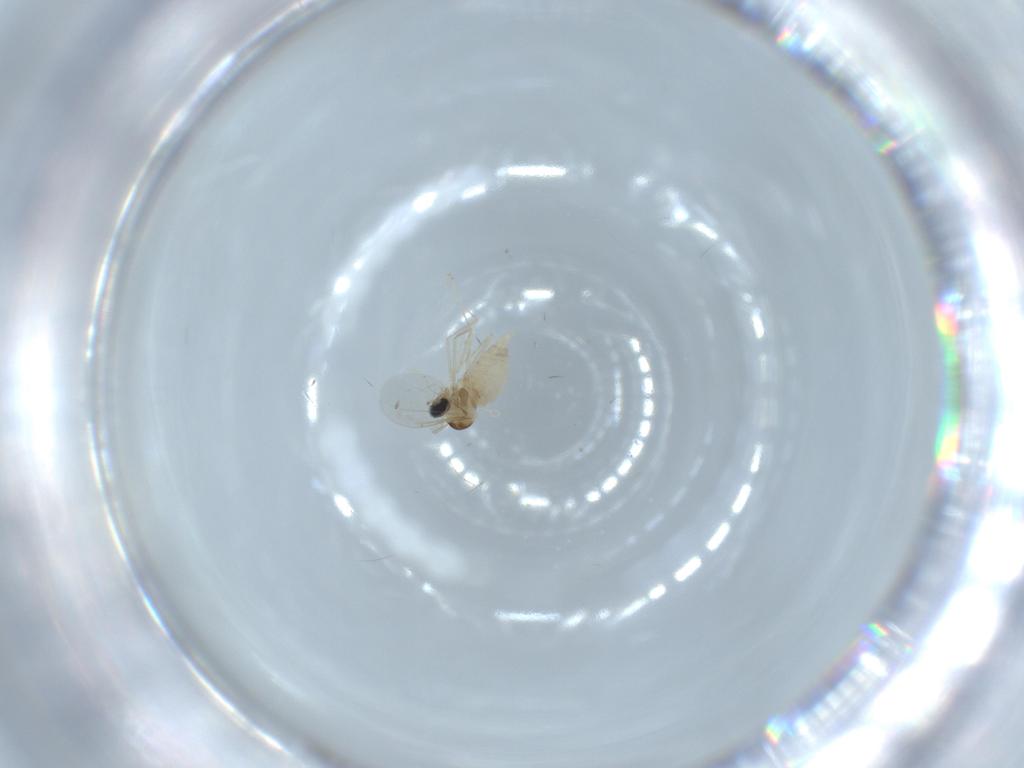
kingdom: Animalia
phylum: Arthropoda
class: Insecta
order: Diptera
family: Cecidomyiidae
